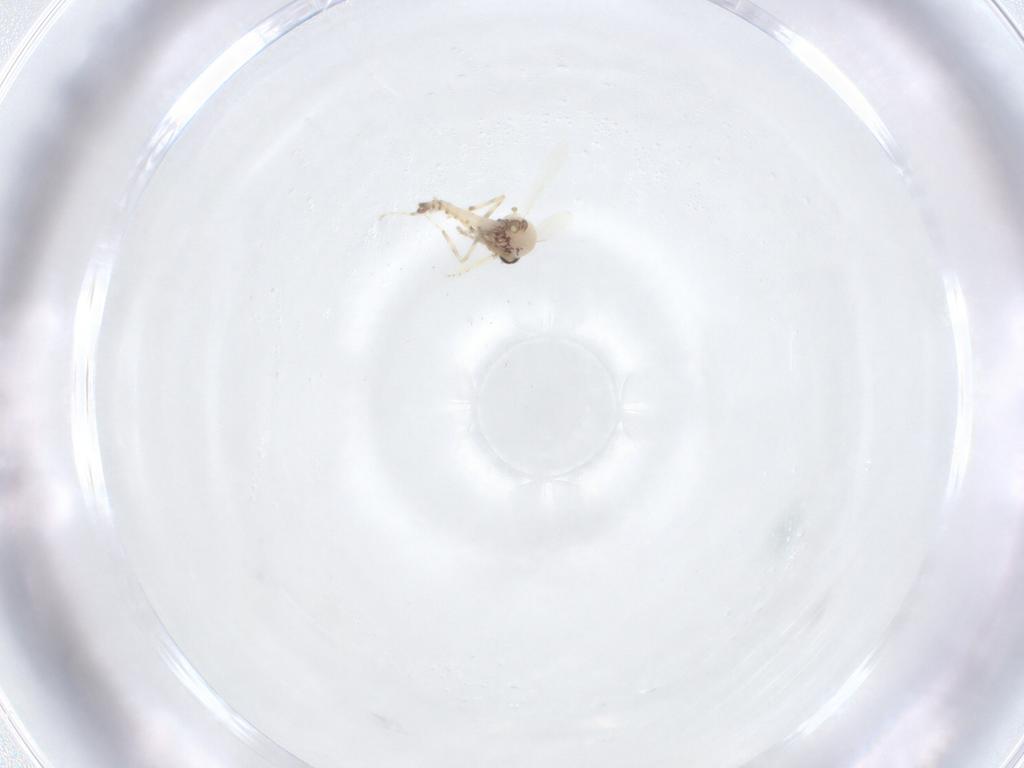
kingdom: Animalia
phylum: Arthropoda
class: Insecta
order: Diptera
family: Ceratopogonidae
